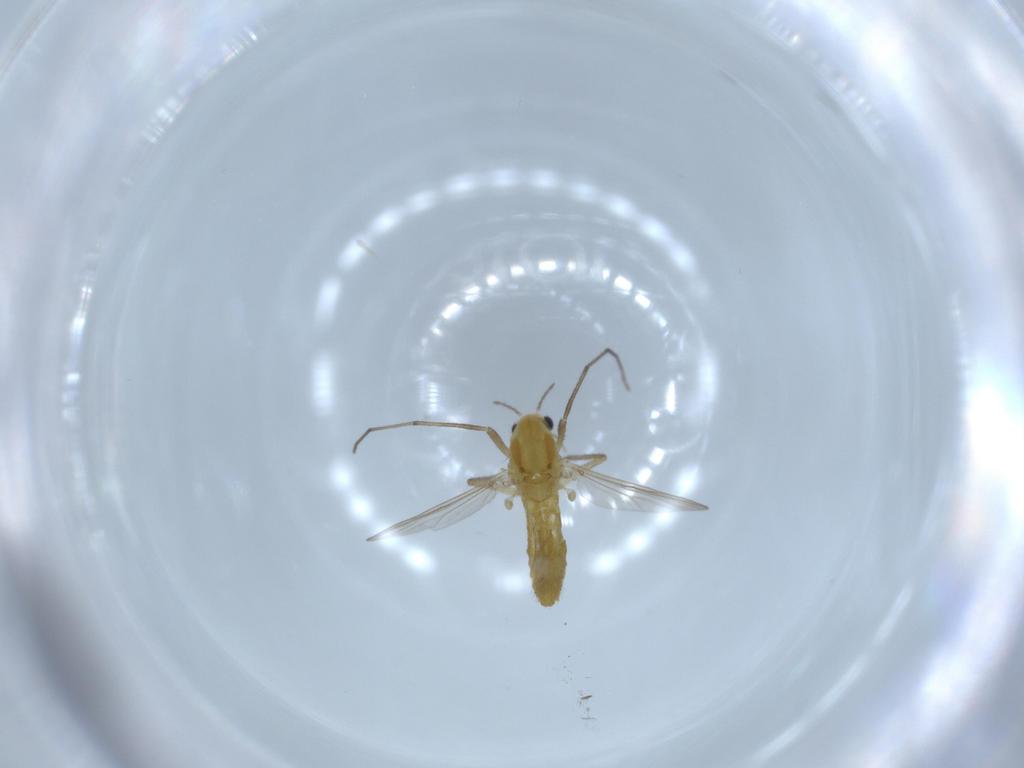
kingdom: Animalia
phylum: Arthropoda
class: Insecta
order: Diptera
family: Chironomidae
